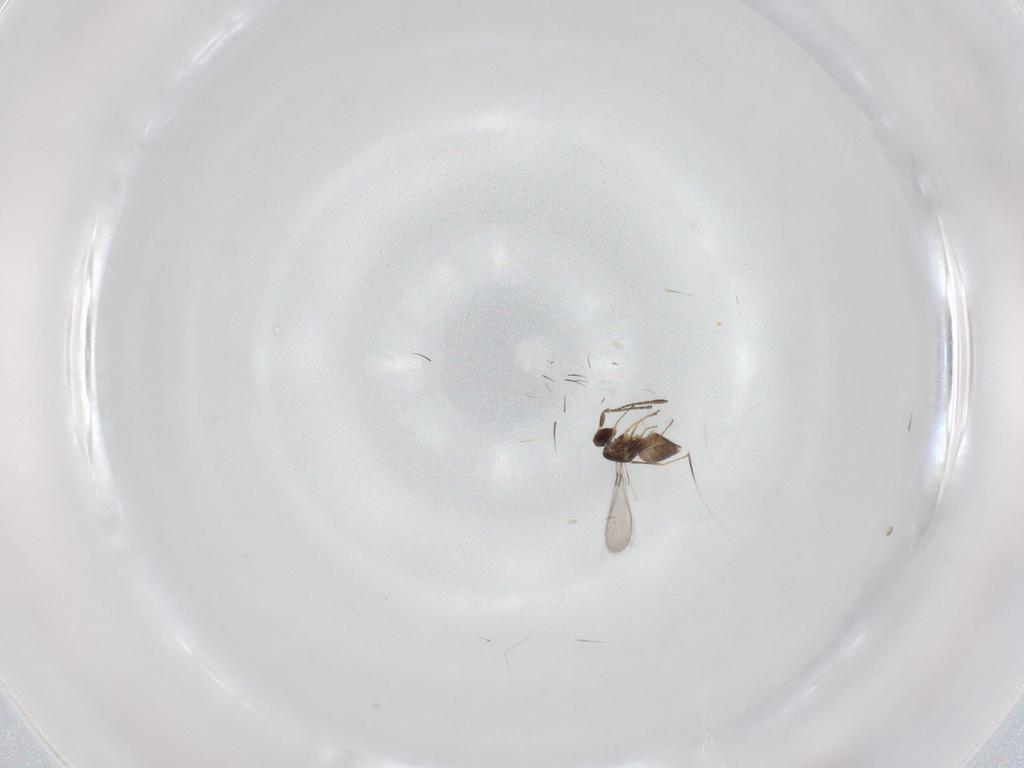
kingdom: Animalia
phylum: Arthropoda
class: Insecta
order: Hymenoptera
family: Mymaridae
